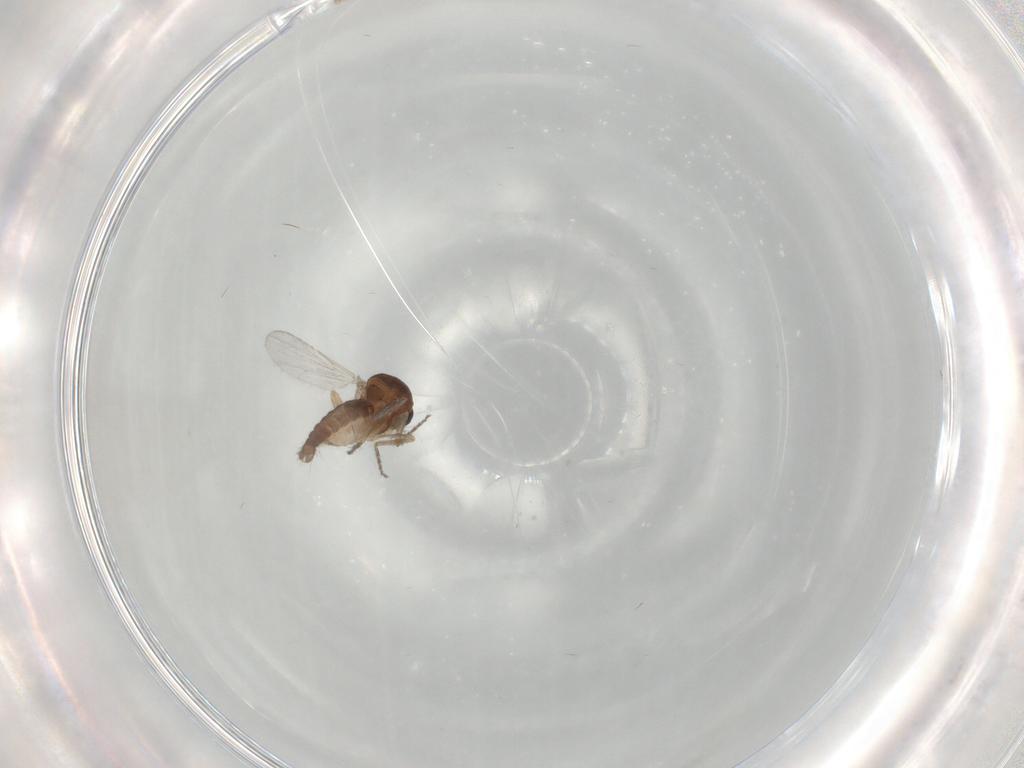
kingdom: Animalia
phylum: Arthropoda
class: Insecta
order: Diptera
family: Ceratopogonidae
